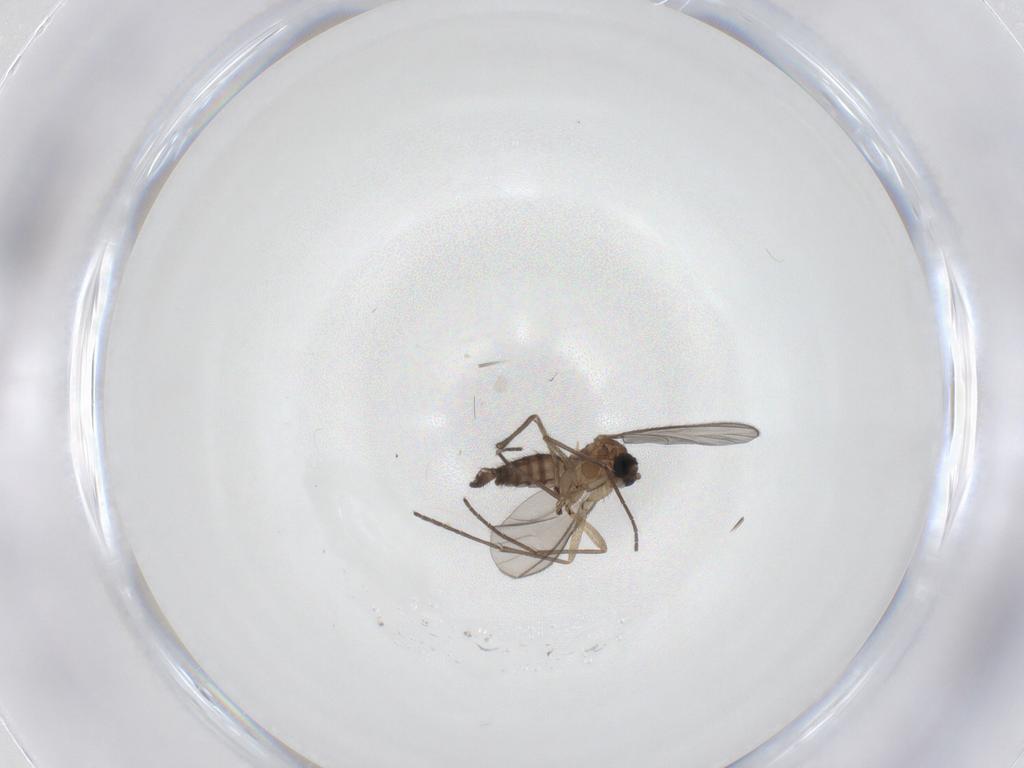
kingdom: Animalia
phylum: Arthropoda
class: Insecta
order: Diptera
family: Sciaridae
